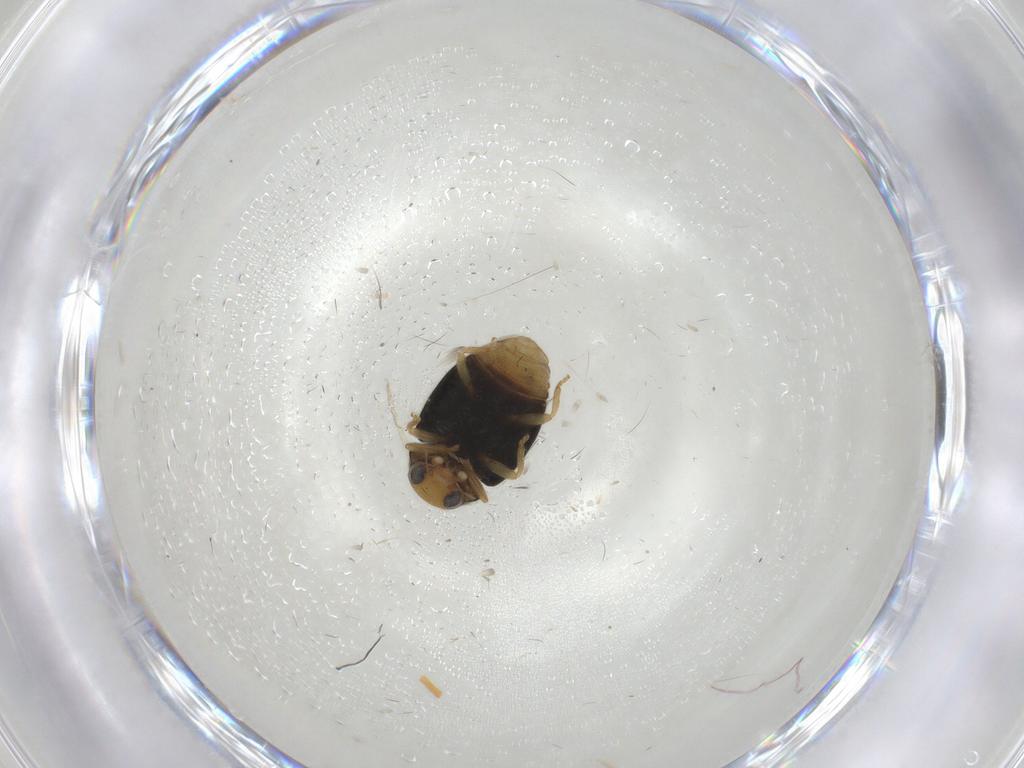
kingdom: Animalia
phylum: Arthropoda
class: Insecta
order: Coleoptera
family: Coccinellidae
